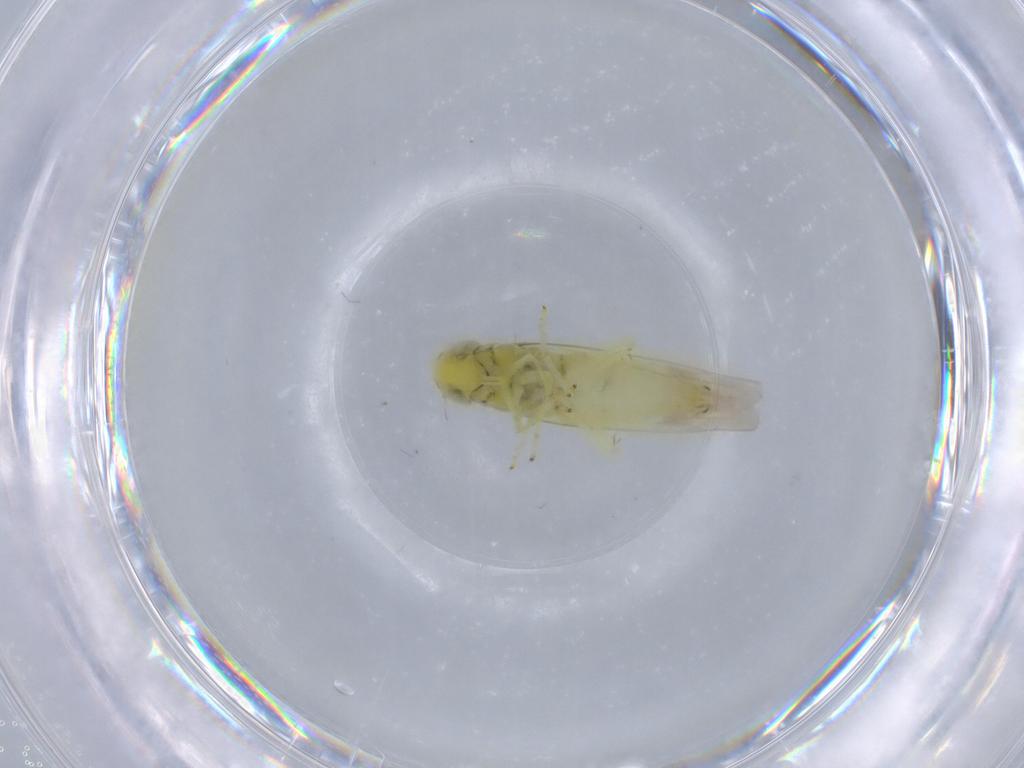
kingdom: Animalia
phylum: Arthropoda
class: Insecta
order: Hemiptera
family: Cicadellidae
